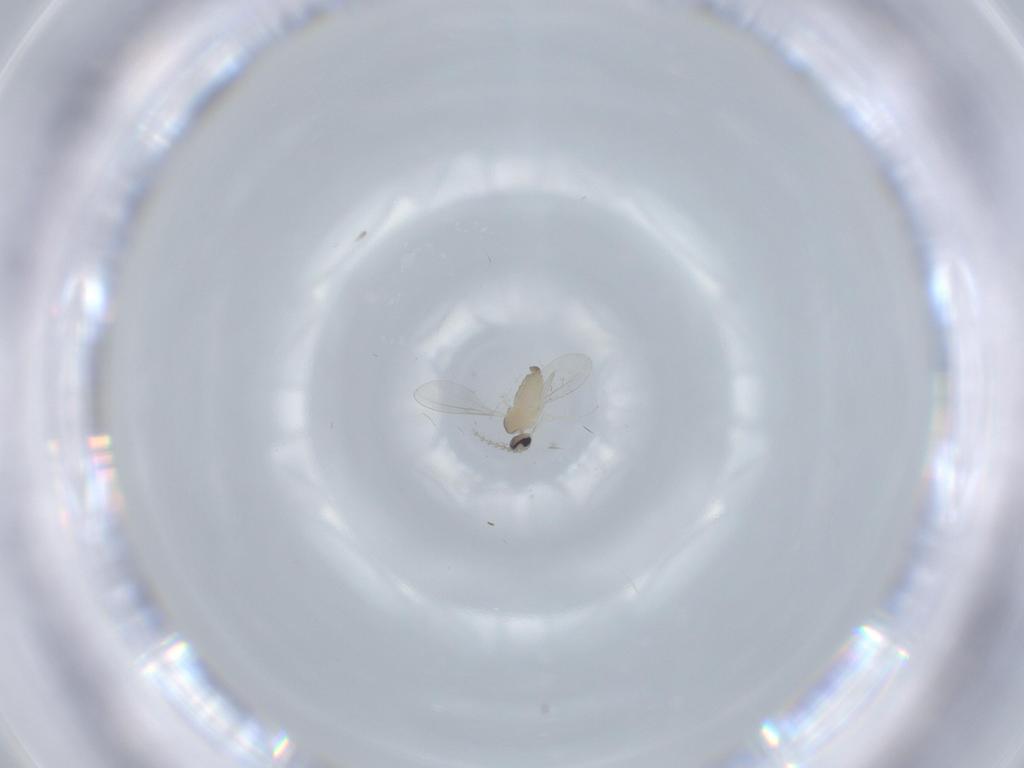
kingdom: Animalia
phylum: Arthropoda
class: Insecta
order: Diptera
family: Cecidomyiidae
